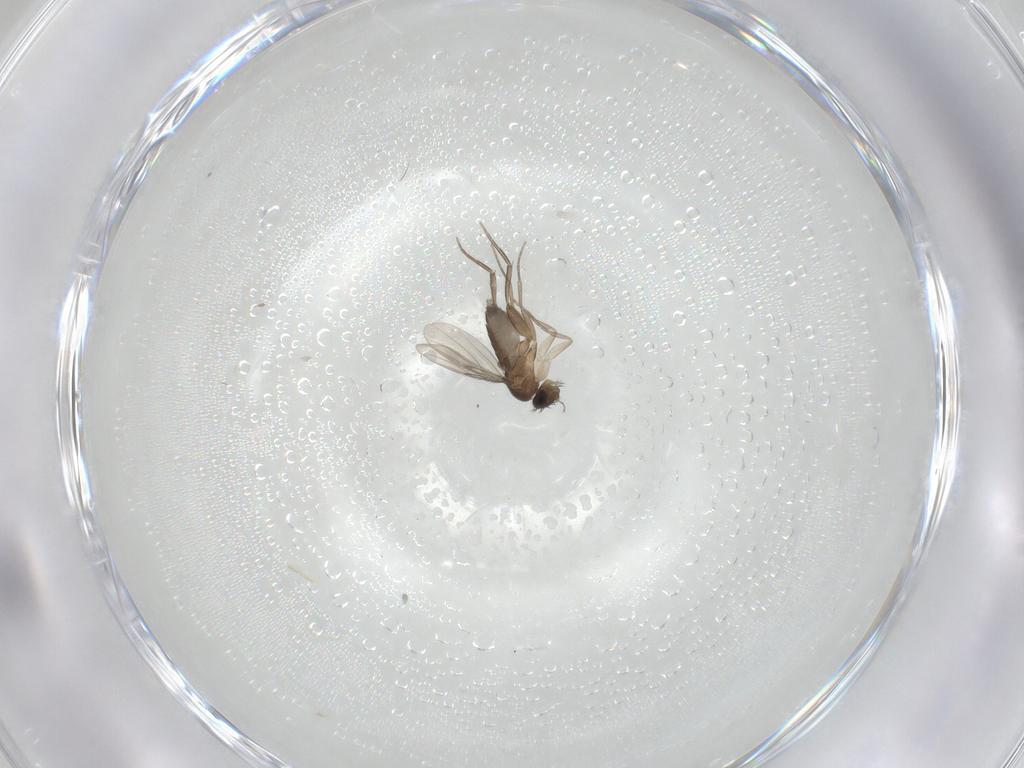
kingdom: Animalia
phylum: Arthropoda
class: Insecta
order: Diptera
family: Phoridae
